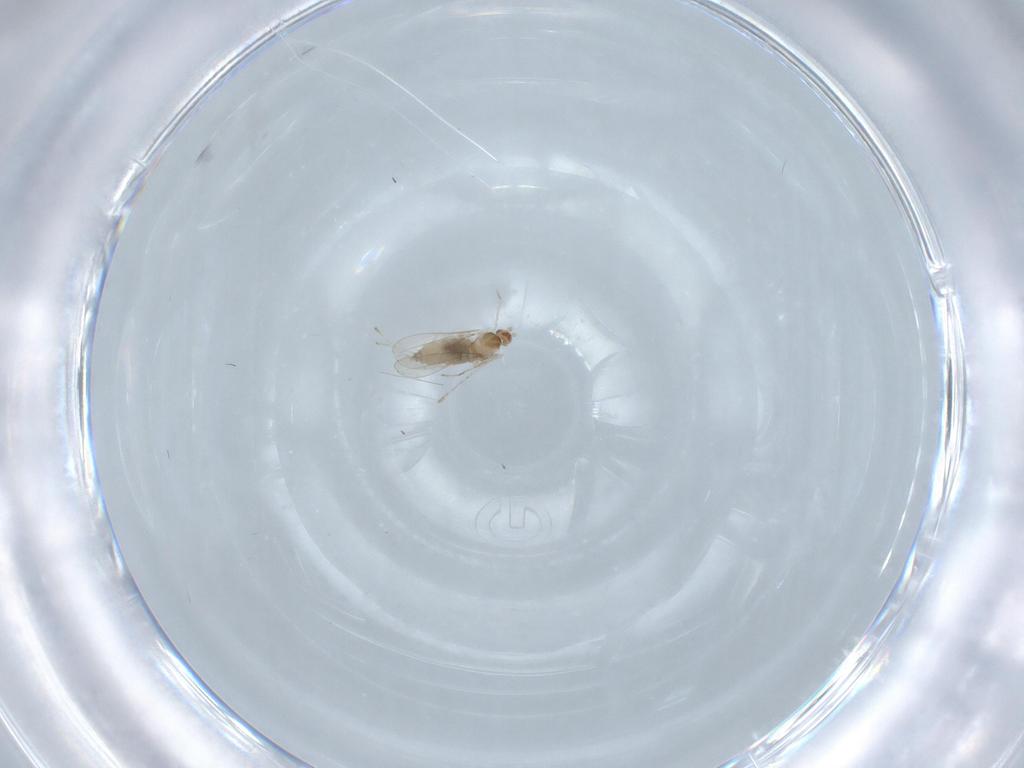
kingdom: Animalia
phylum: Arthropoda
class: Insecta
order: Diptera
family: Cecidomyiidae
